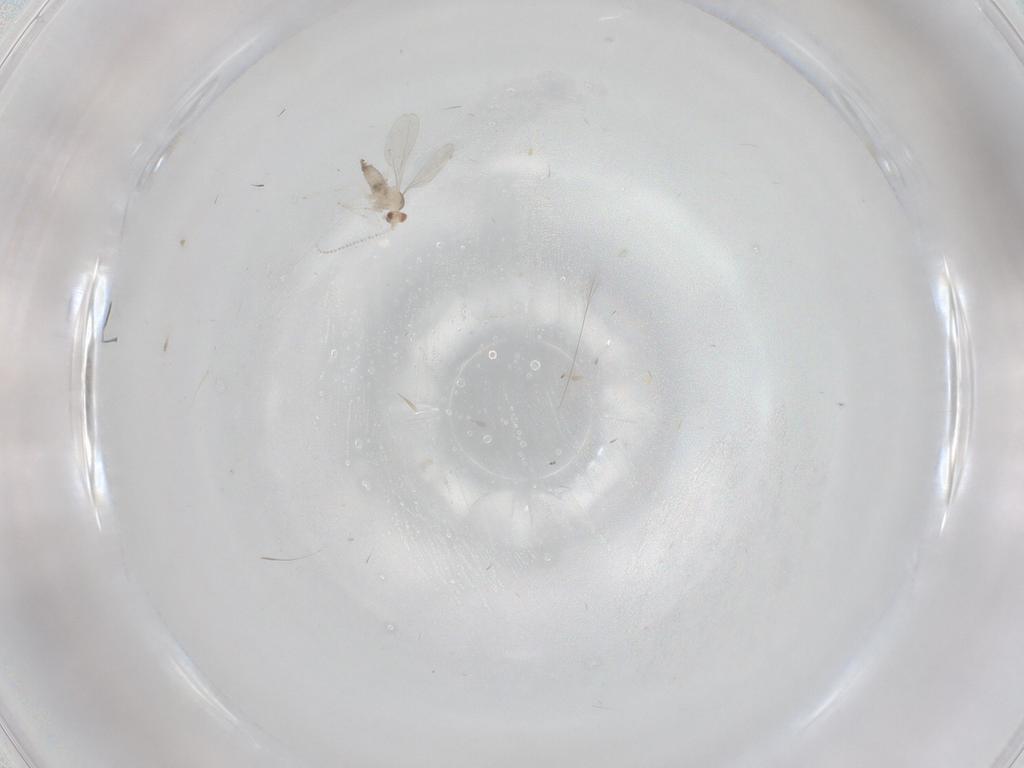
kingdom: Animalia
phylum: Arthropoda
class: Insecta
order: Diptera
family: Cecidomyiidae
